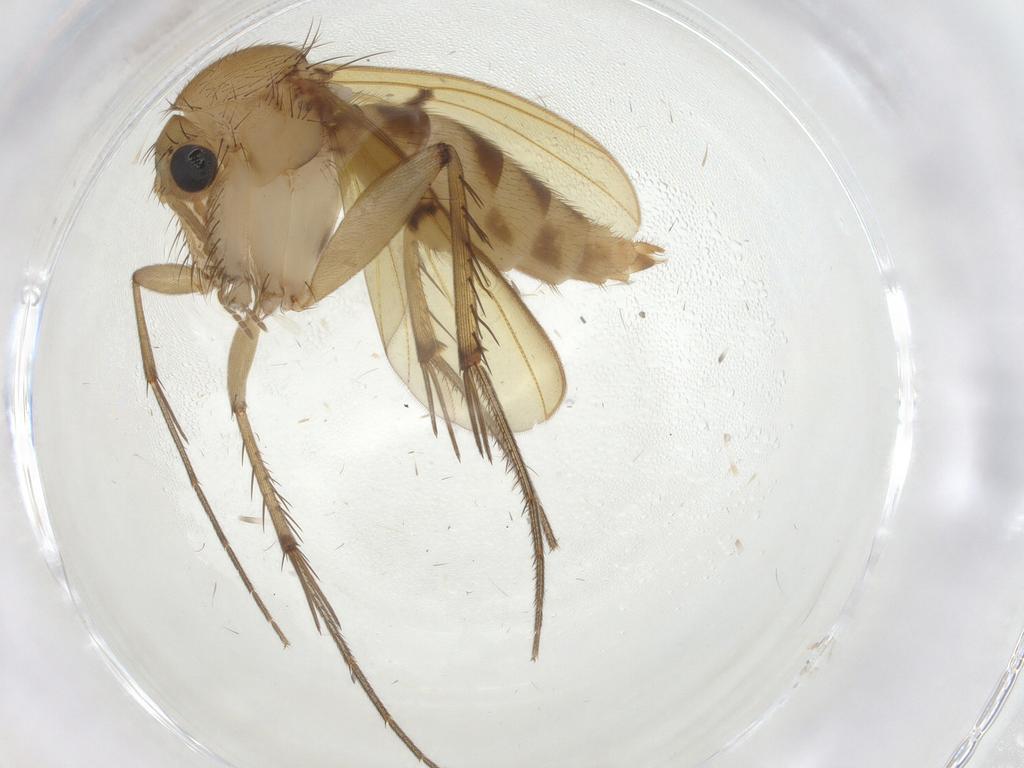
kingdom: Animalia
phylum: Arthropoda
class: Insecta
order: Diptera
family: Mycetophilidae
